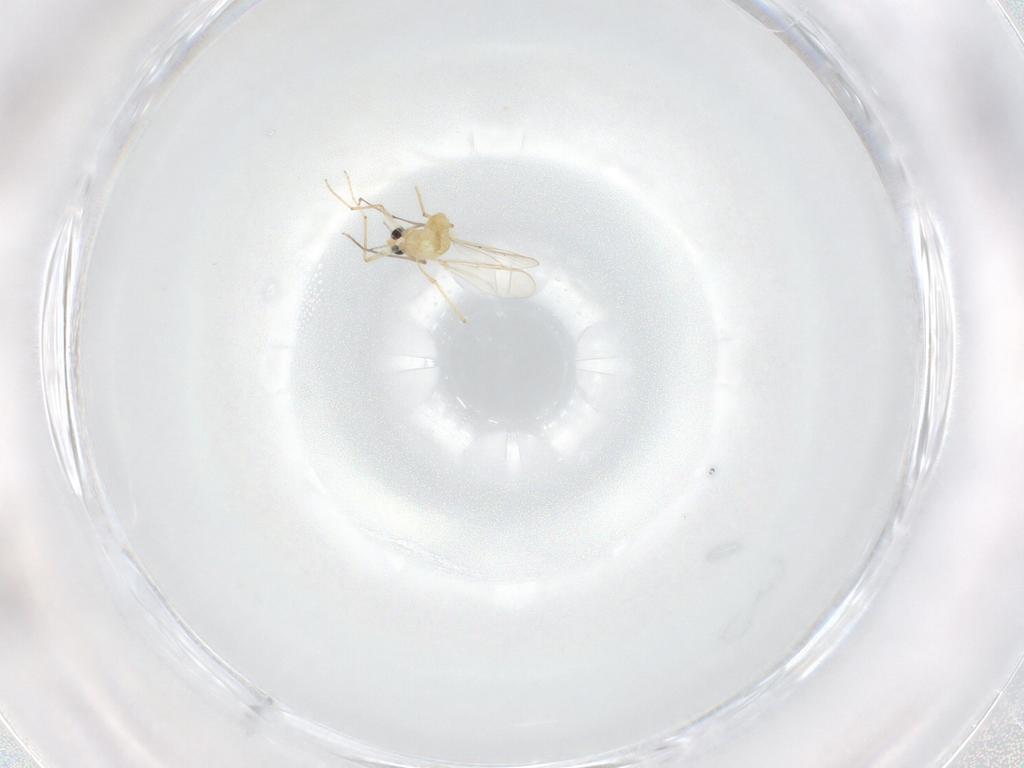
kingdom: Animalia
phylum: Arthropoda
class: Insecta
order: Diptera
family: Chironomidae
